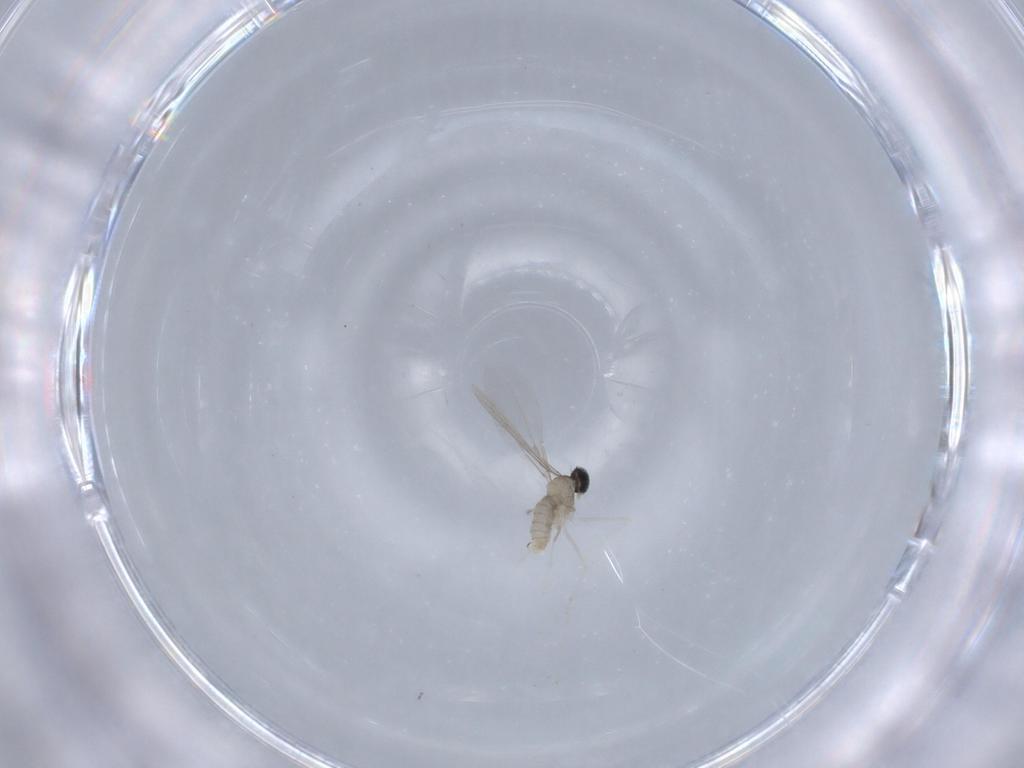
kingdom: Animalia
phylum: Arthropoda
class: Insecta
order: Diptera
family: Cecidomyiidae
